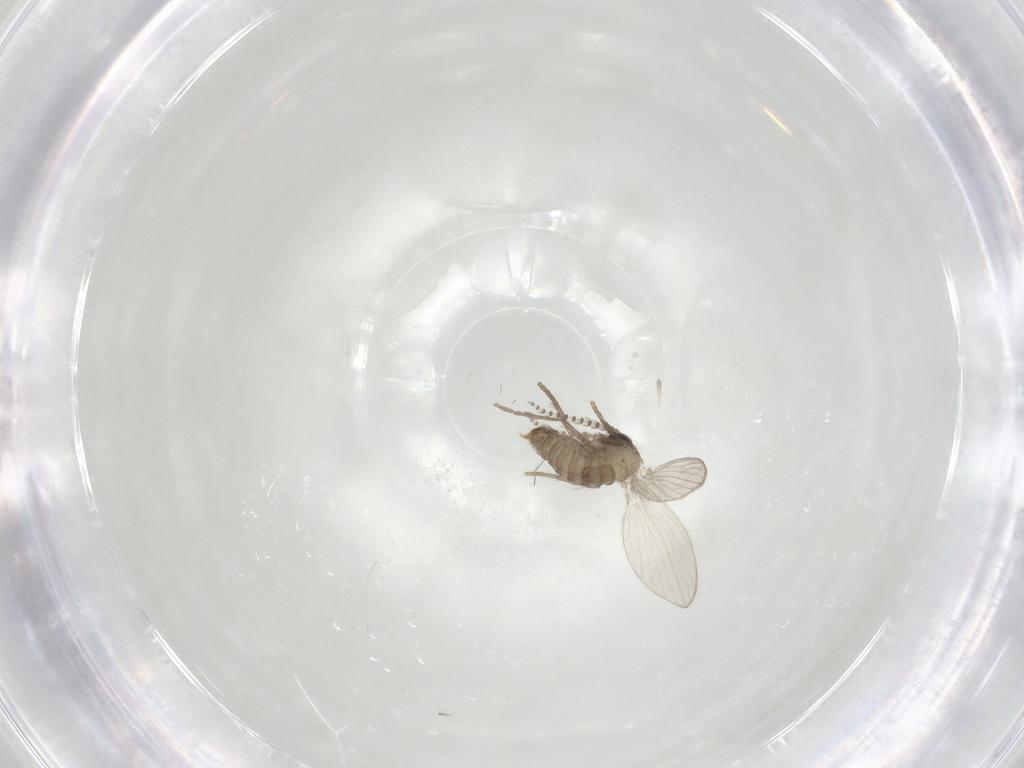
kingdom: Animalia
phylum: Arthropoda
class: Insecta
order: Diptera
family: Psychodidae
